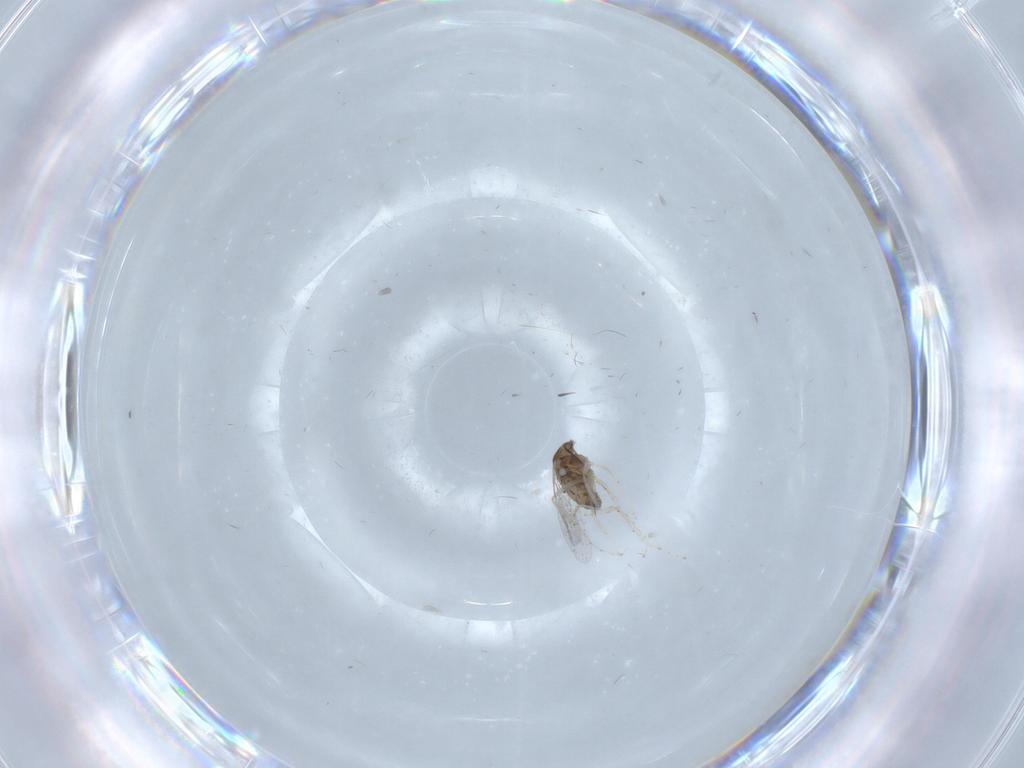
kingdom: Animalia
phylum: Arthropoda
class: Insecta
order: Diptera
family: Cecidomyiidae
